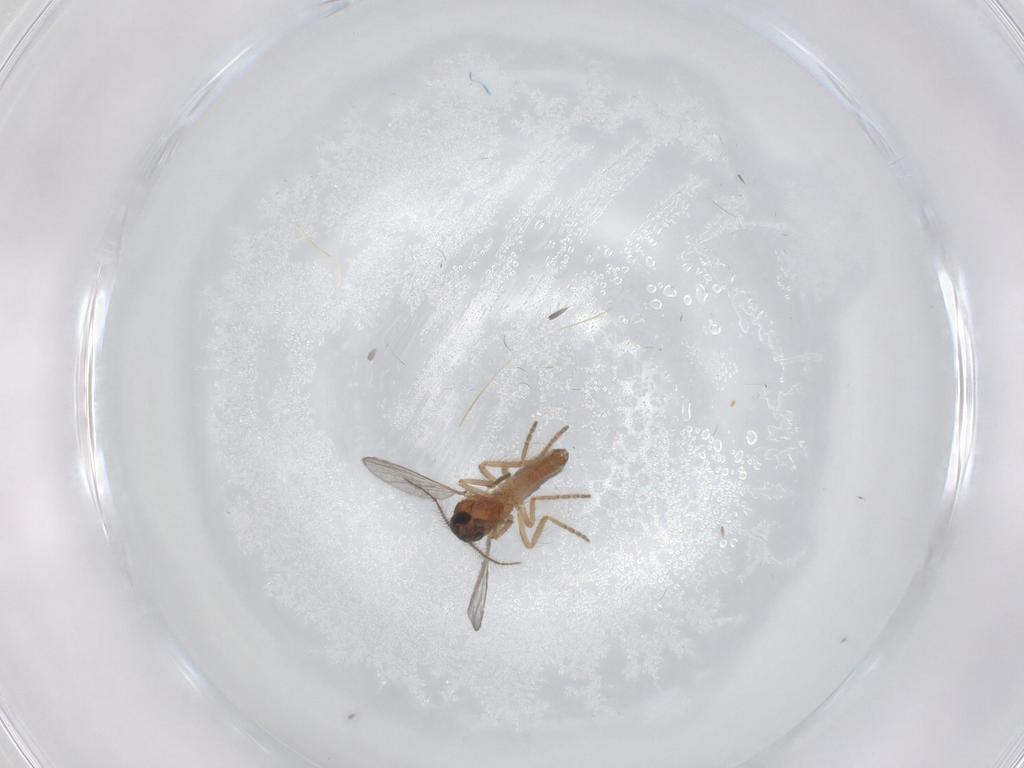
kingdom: Animalia
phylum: Arthropoda
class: Insecta
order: Diptera
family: Ceratopogonidae
